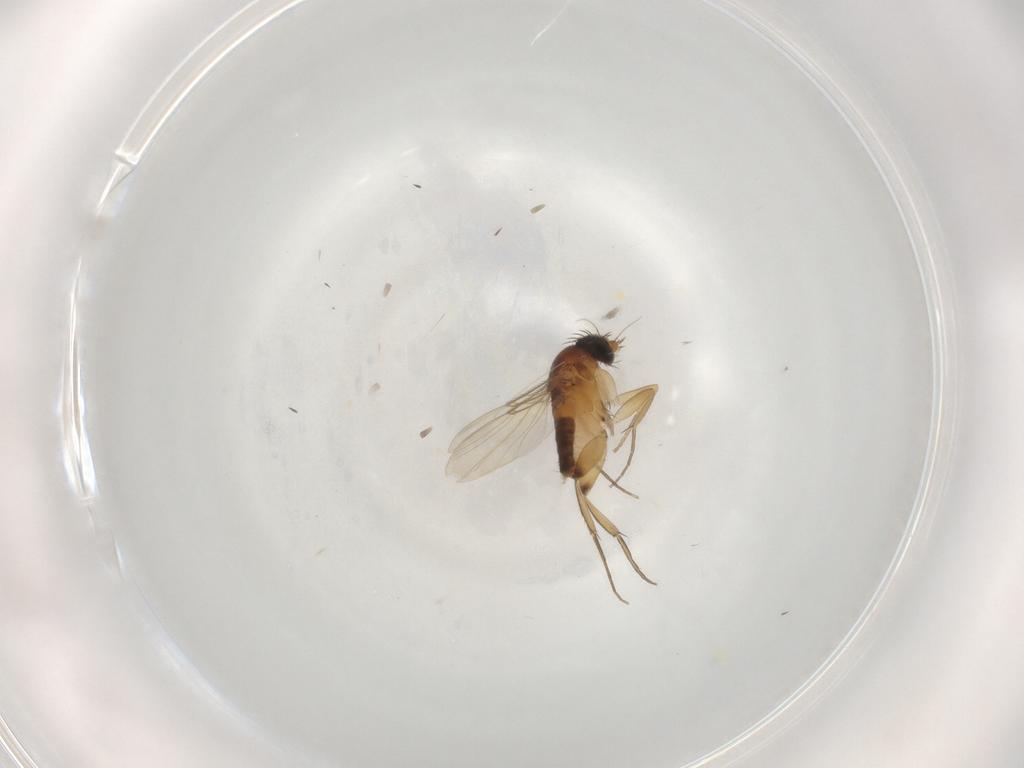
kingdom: Animalia
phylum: Arthropoda
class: Insecta
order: Diptera
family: Phoridae
